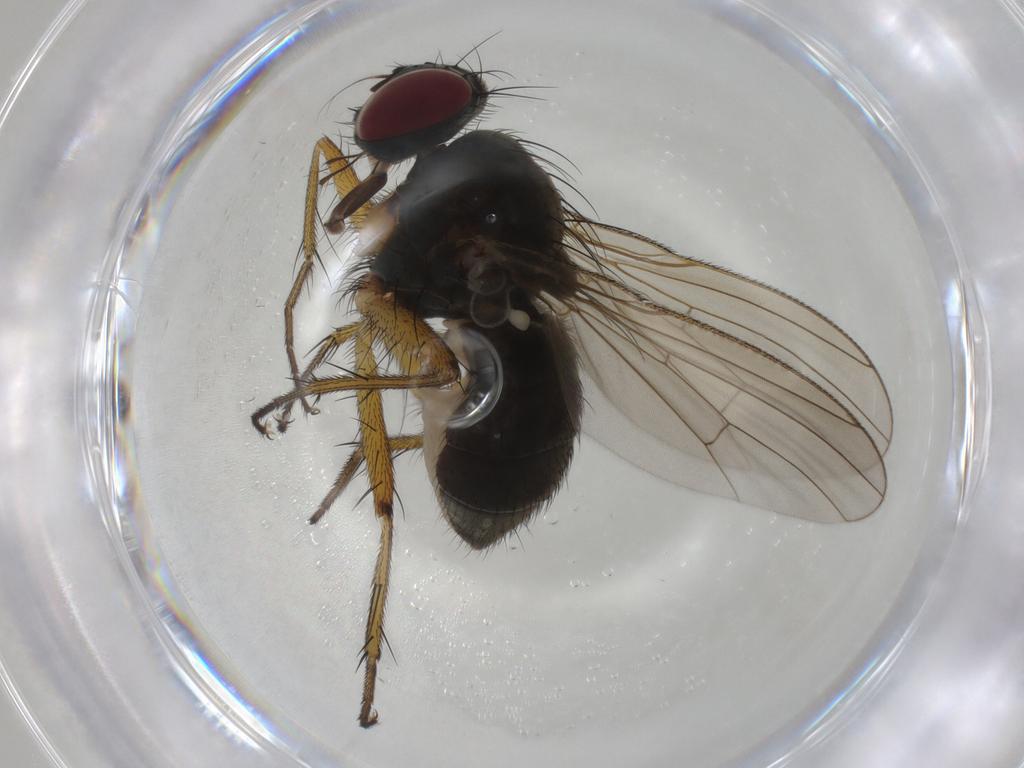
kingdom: Animalia
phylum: Arthropoda
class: Insecta
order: Diptera
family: Muscidae
